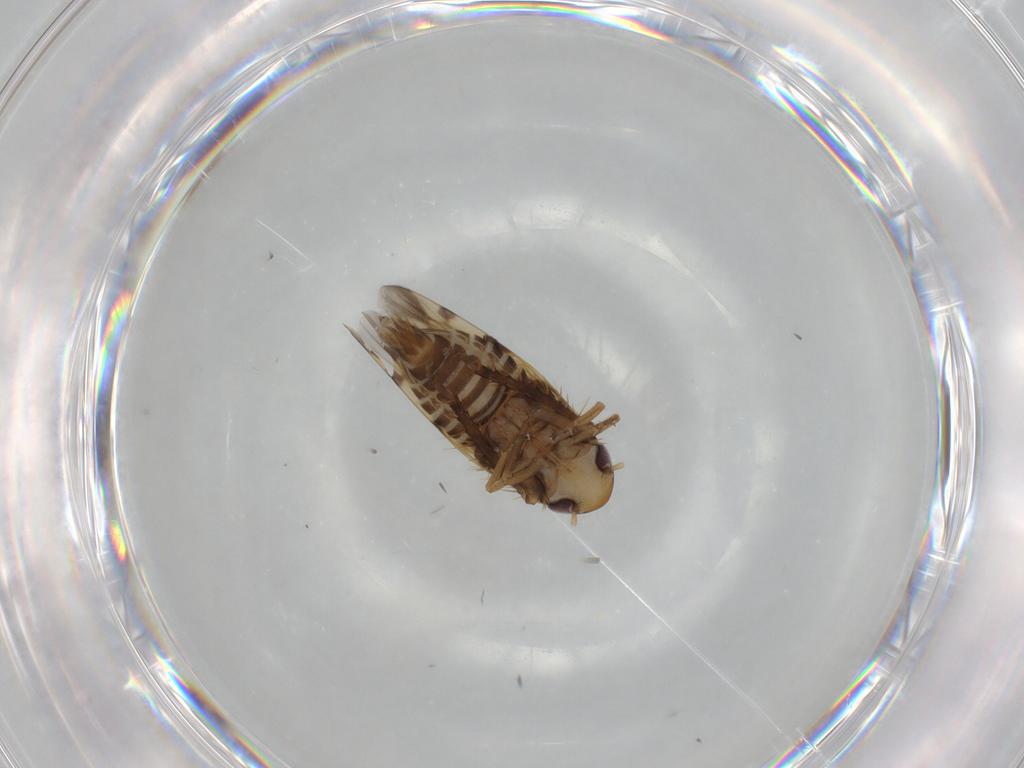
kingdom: Animalia
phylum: Arthropoda
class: Insecta
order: Hemiptera
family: Cicadellidae
